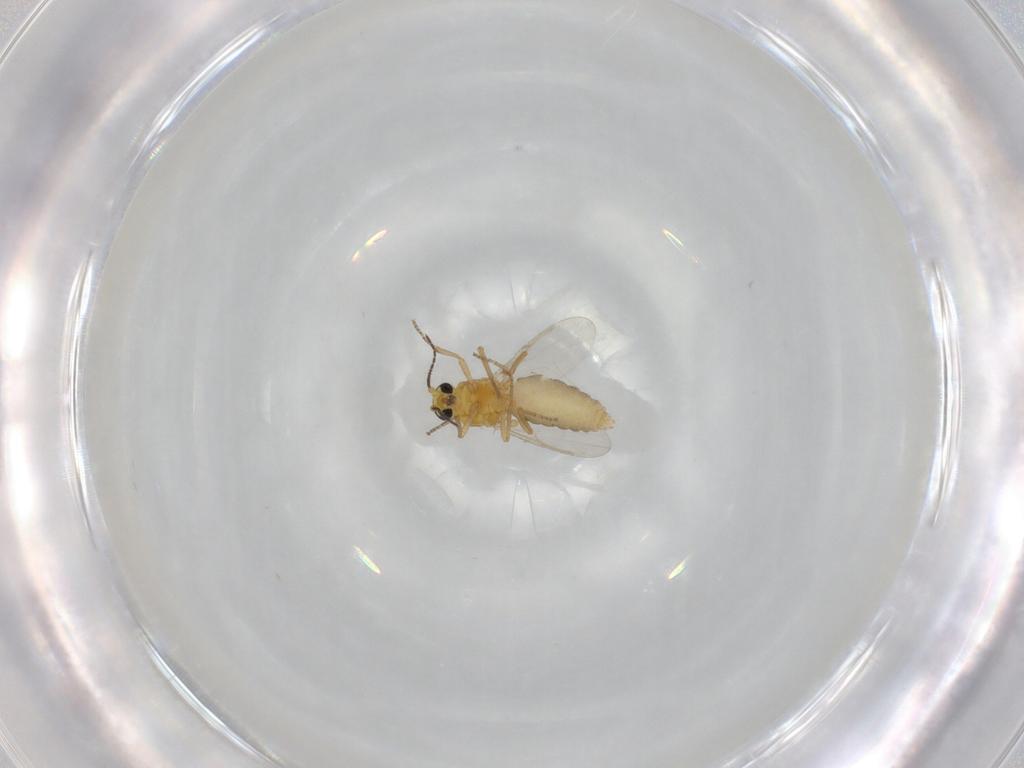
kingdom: Animalia
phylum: Arthropoda
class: Insecta
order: Diptera
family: Ceratopogonidae
